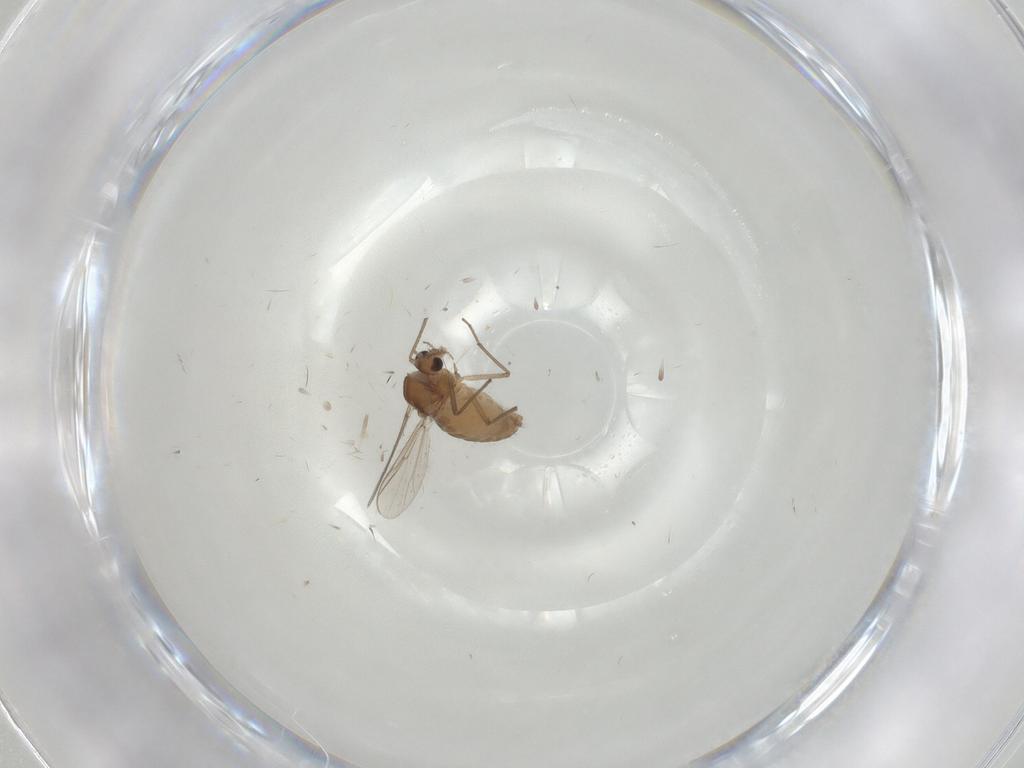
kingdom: Animalia
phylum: Arthropoda
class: Insecta
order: Diptera
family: Chironomidae
